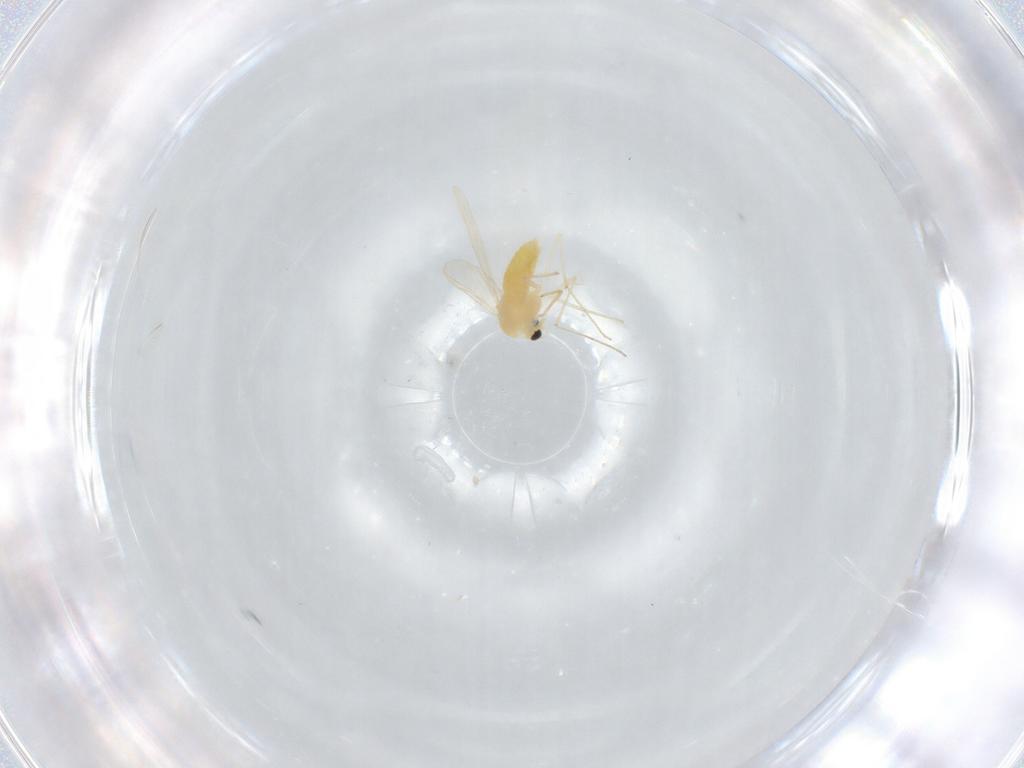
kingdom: Animalia
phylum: Arthropoda
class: Insecta
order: Diptera
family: Chironomidae
